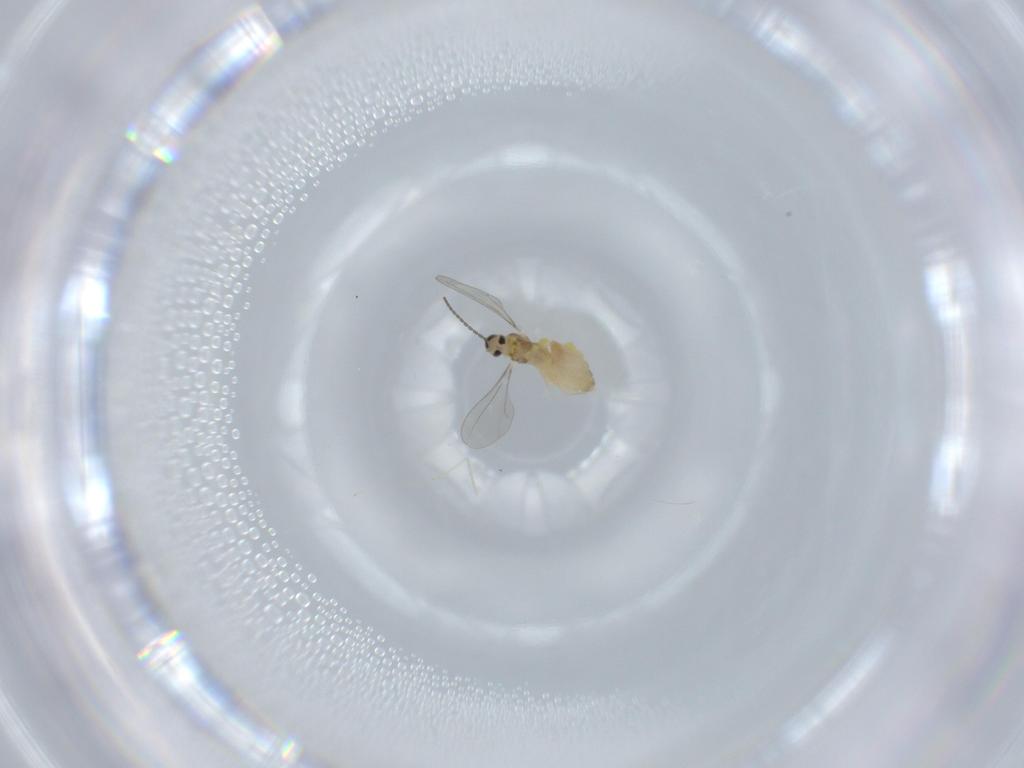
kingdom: Animalia
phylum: Arthropoda
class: Insecta
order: Diptera
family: Cecidomyiidae
